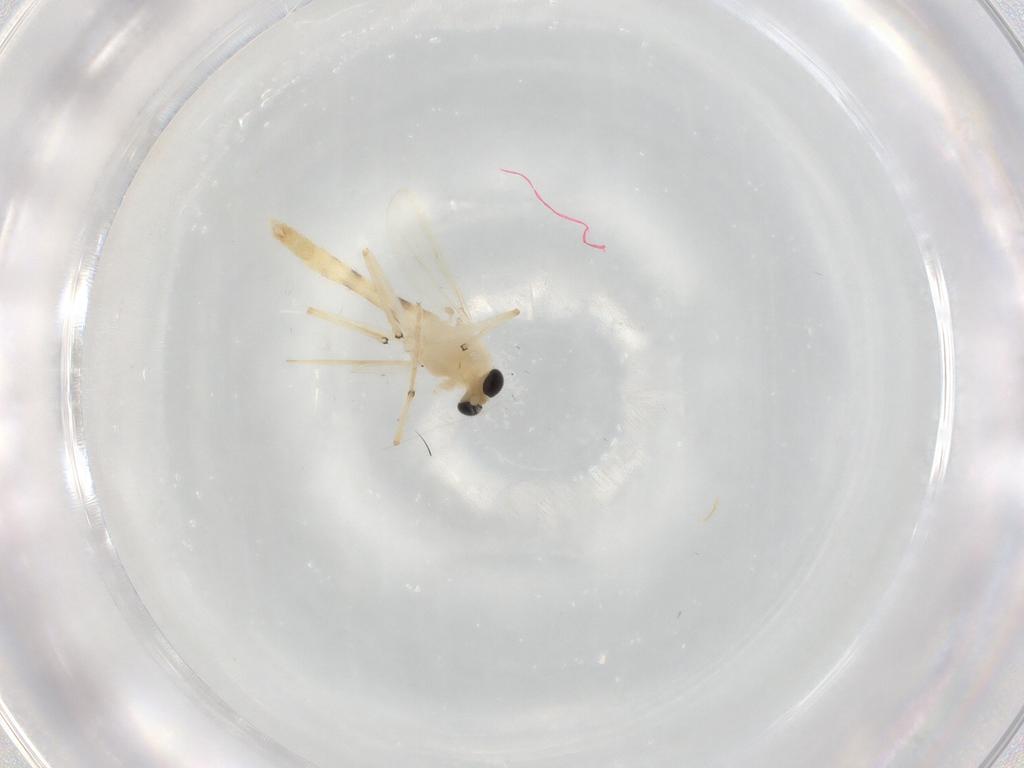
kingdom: Animalia
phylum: Arthropoda
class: Insecta
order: Diptera
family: Chironomidae
